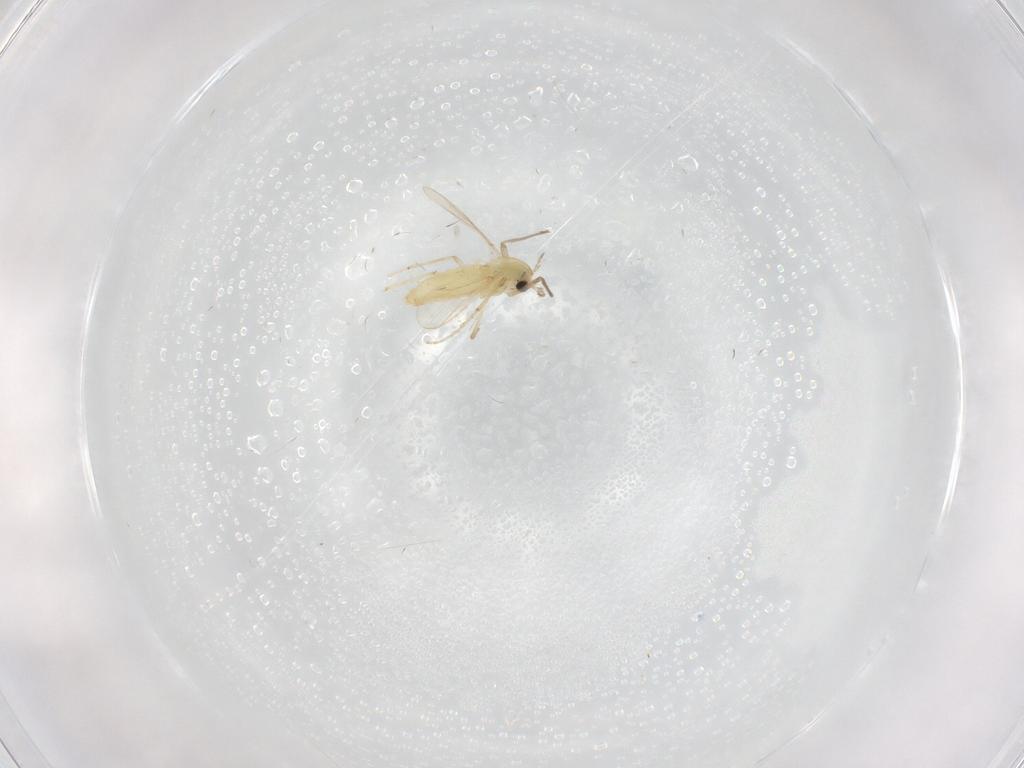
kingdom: Animalia
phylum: Arthropoda
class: Insecta
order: Diptera
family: Chironomidae
